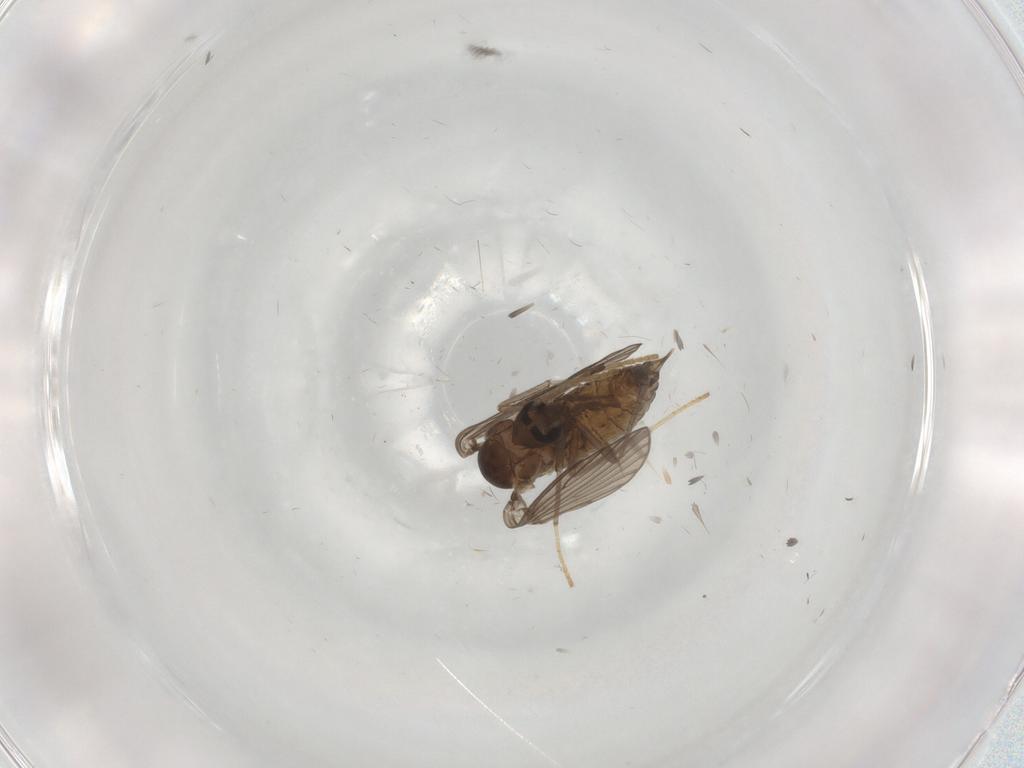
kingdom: Animalia
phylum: Arthropoda
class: Insecta
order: Diptera
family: Psychodidae
